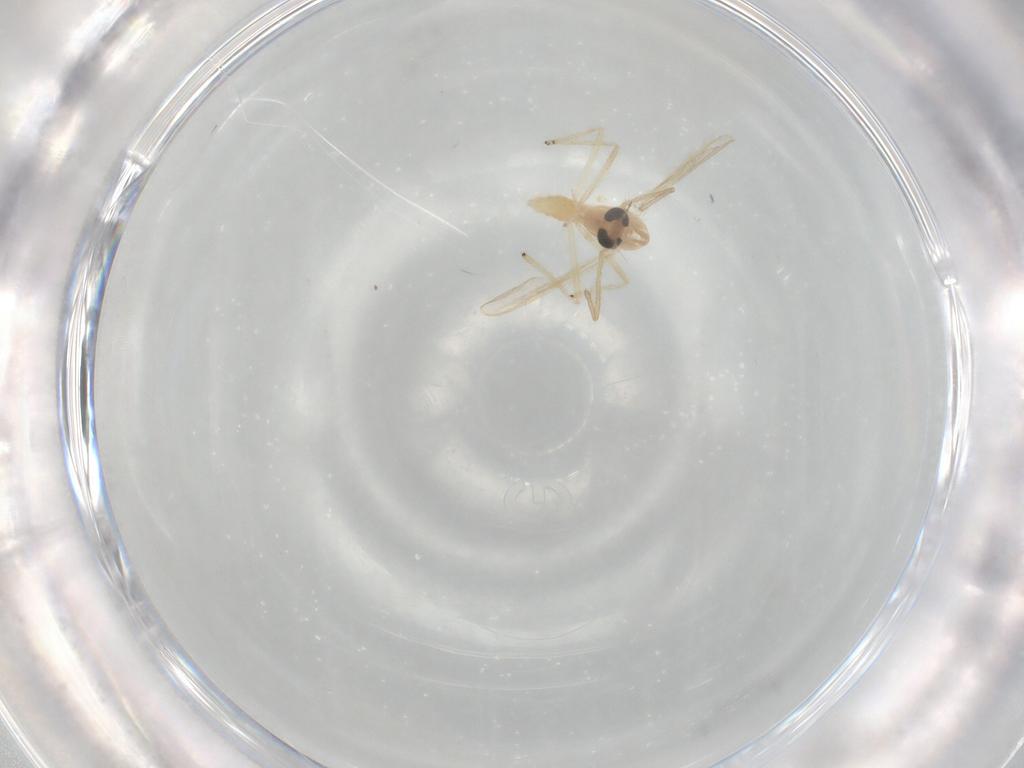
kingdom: Animalia
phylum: Arthropoda
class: Insecta
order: Diptera
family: Chironomidae
